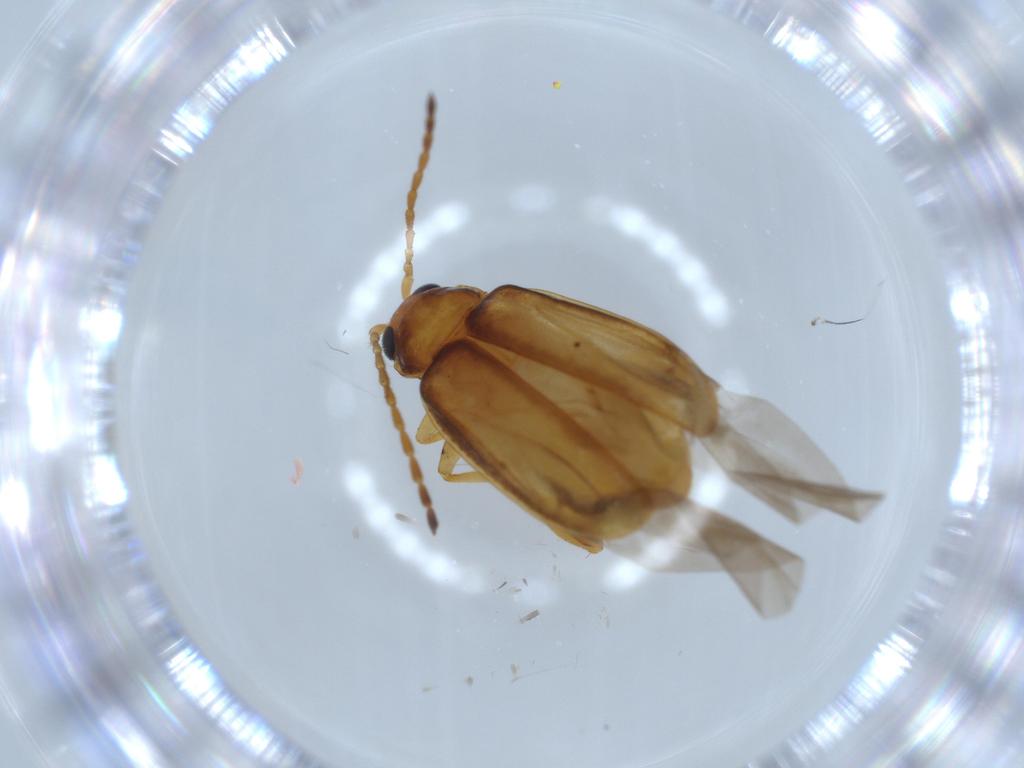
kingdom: Animalia
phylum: Arthropoda
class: Insecta
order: Coleoptera
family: Chrysomelidae
